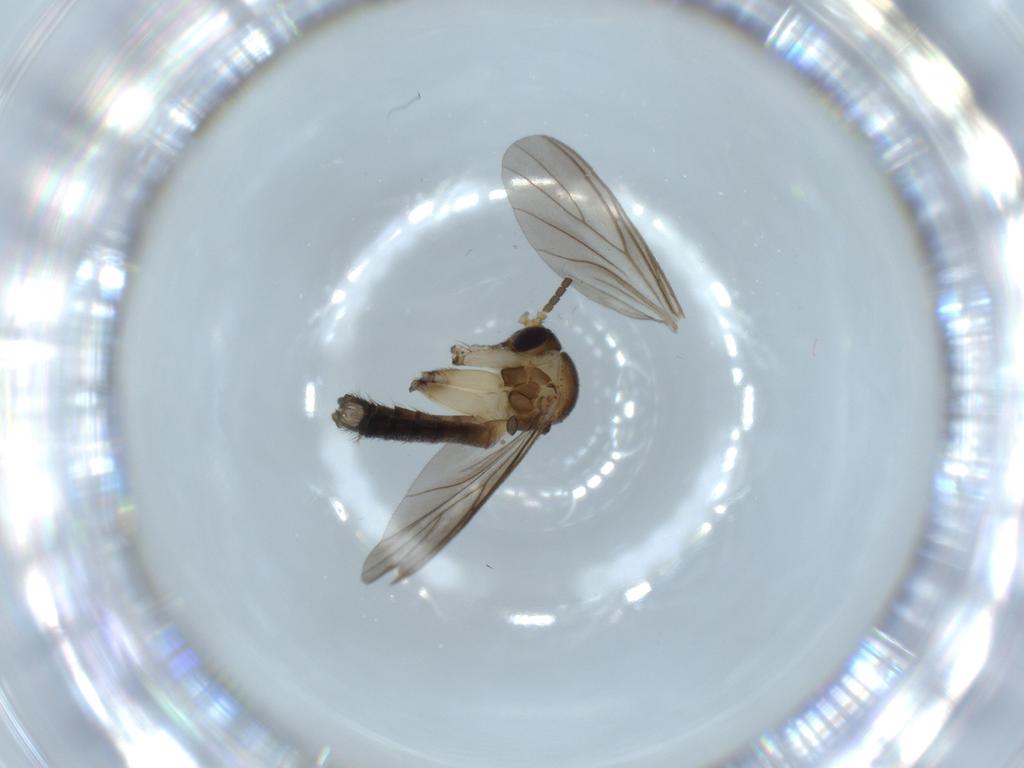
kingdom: Animalia
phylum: Arthropoda
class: Insecta
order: Diptera
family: Mycetophilidae
